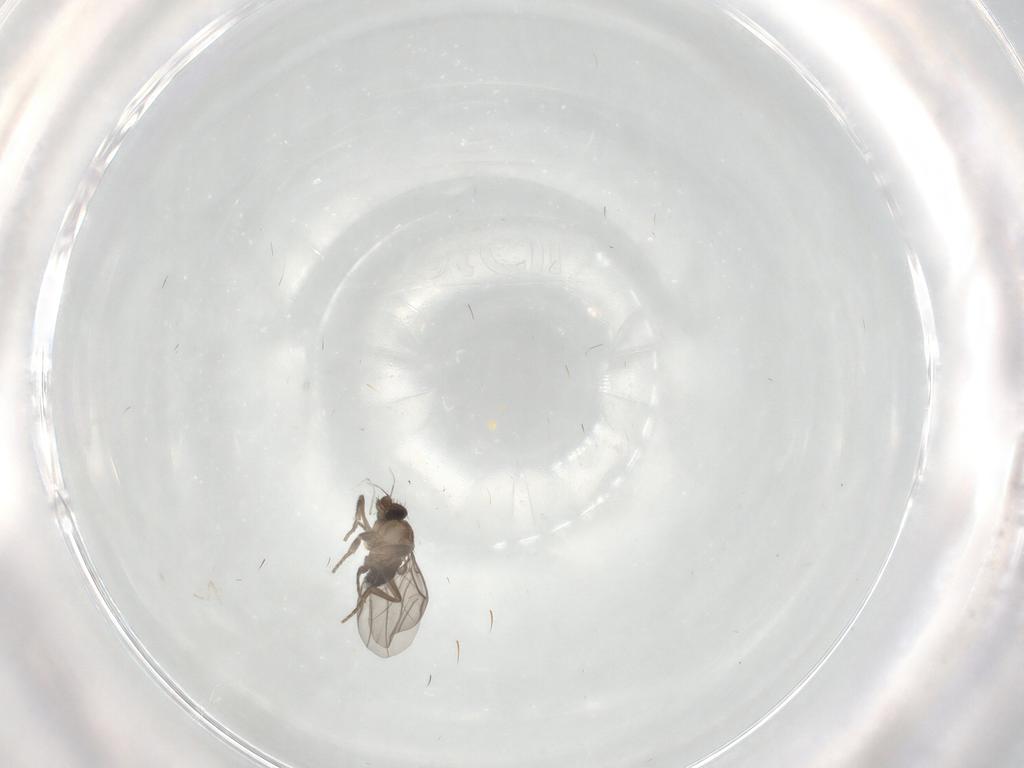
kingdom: Animalia
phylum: Arthropoda
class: Insecta
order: Diptera
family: Cecidomyiidae
